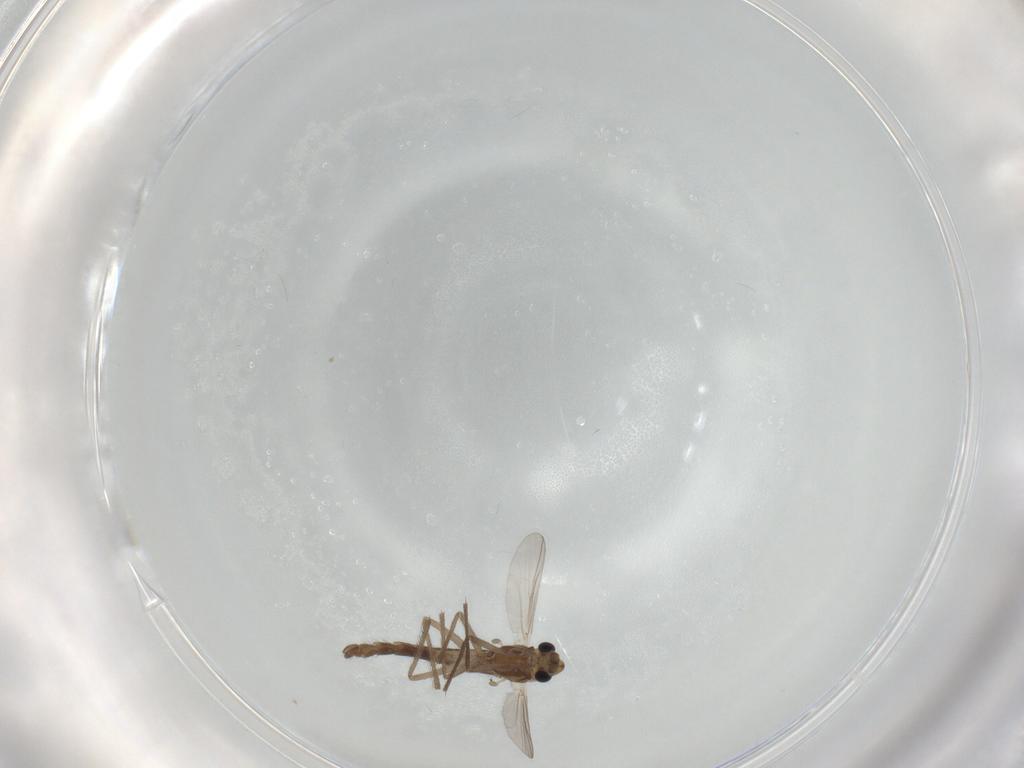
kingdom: Animalia
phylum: Arthropoda
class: Insecta
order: Diptera
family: Chironomidae
